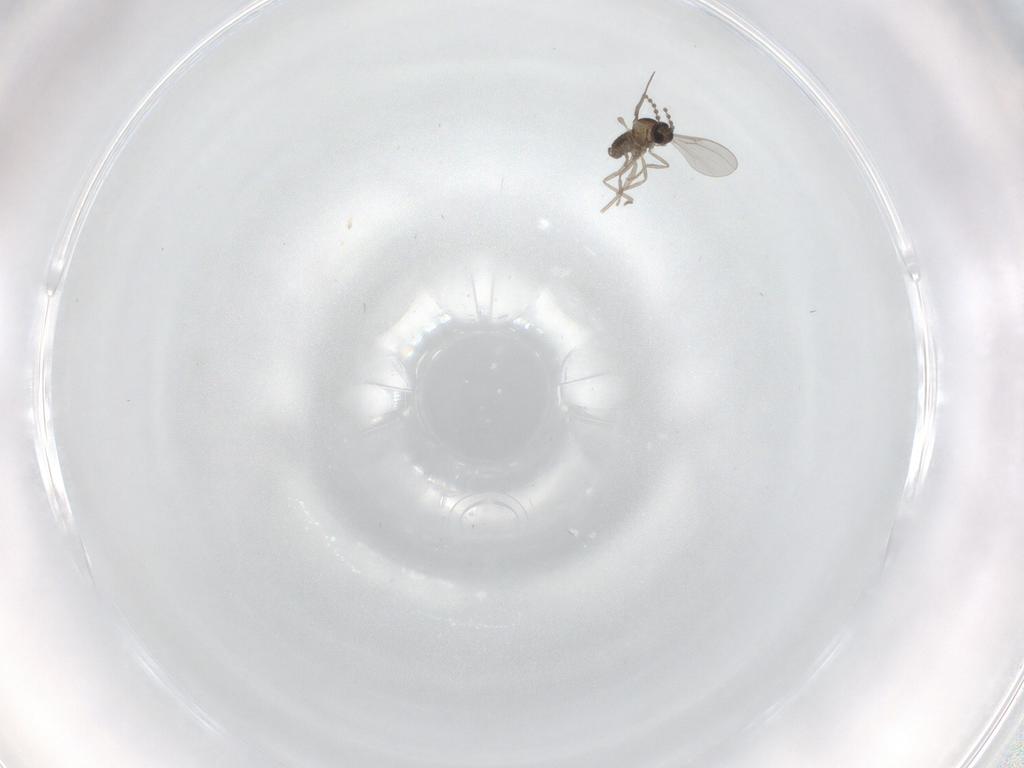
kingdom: Animalia
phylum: Arthropoda
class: Insecta
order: Diptera
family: Cecidomyiidae
